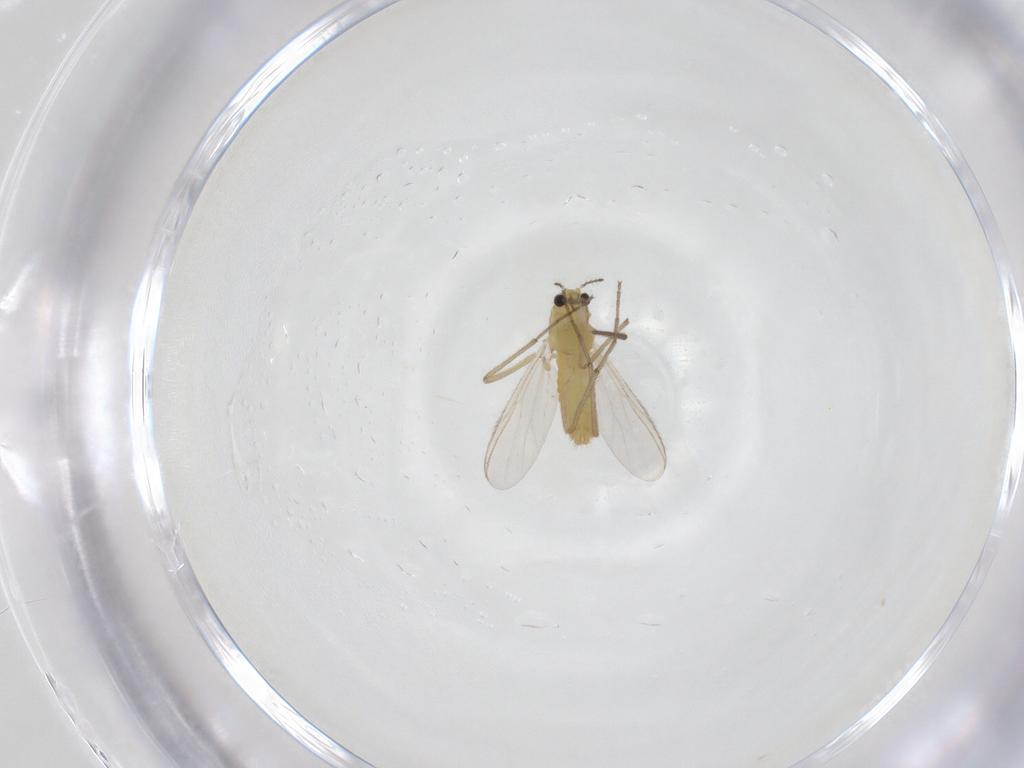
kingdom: Animalia
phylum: Arthropoda
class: Insecta
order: Diptera
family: Chironomidae
